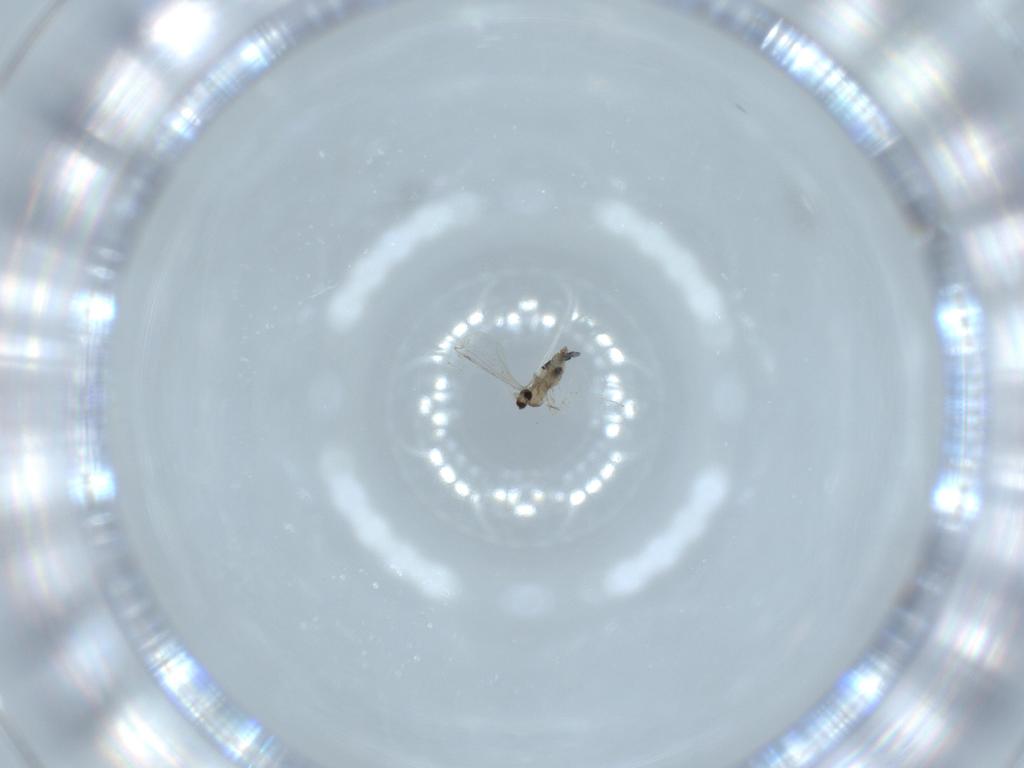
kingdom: Animalia
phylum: Arthropoda
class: Insecta
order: Diptera
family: Cecidomyiidae
